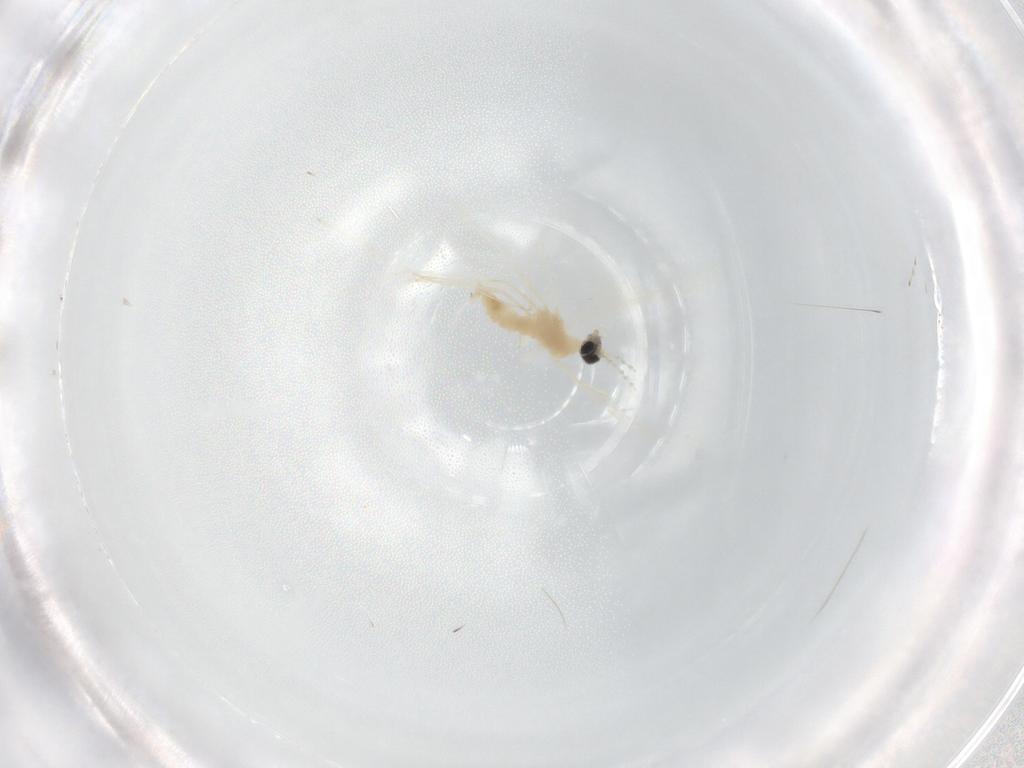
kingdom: Animalia
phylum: Arthropoda
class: Insecta
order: Diptera
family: Cecidomyiidae
